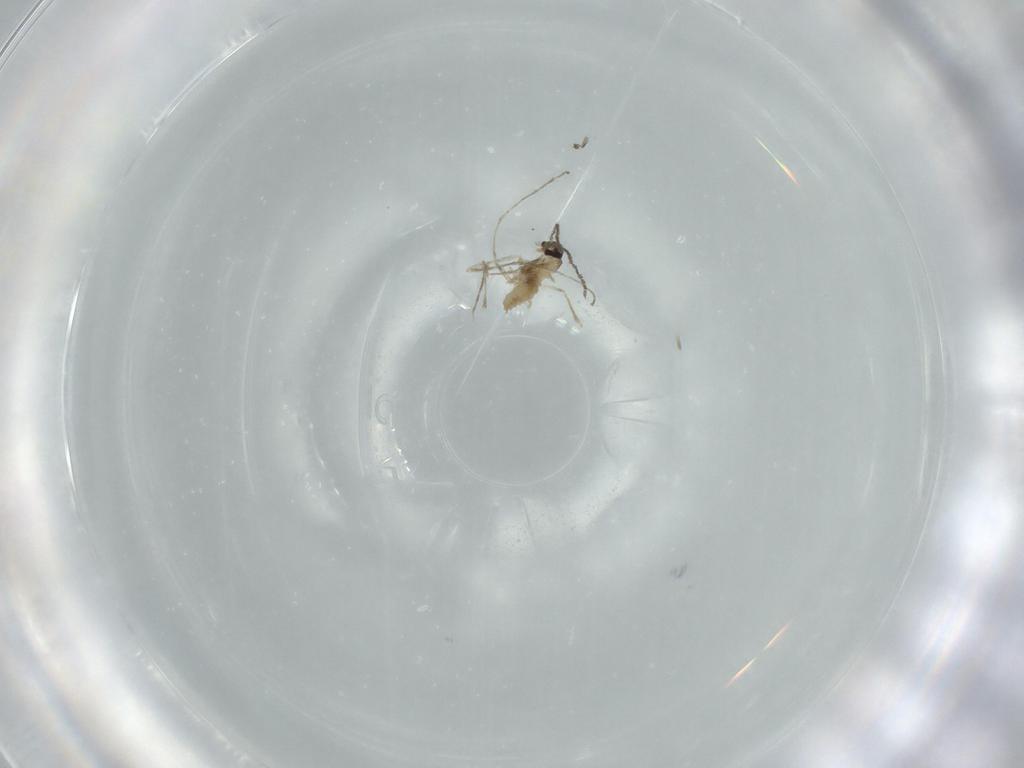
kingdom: Animalia
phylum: Arthropoda
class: Insecta
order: Diptera
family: Cecidomyiidae
